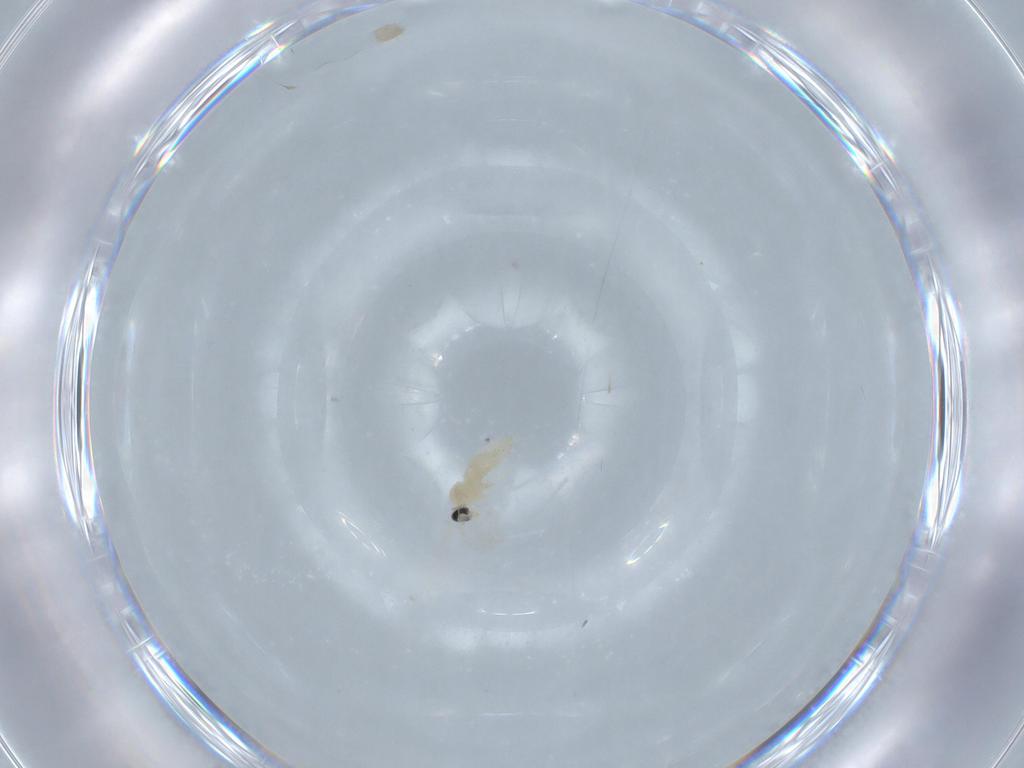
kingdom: Animalia
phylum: Arthropoda
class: Insecta
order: Diptera
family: Cecidomyiidae
